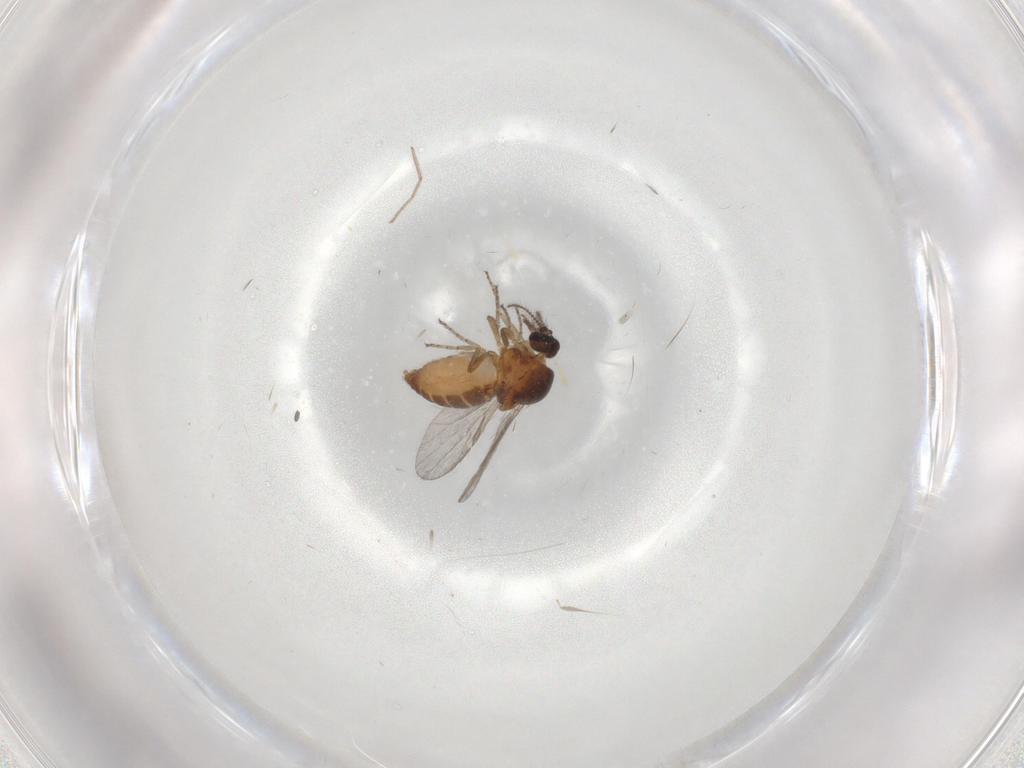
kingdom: Animalia
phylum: Arthropoda
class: Insecta
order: Diptera
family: Ceratopogonidae
